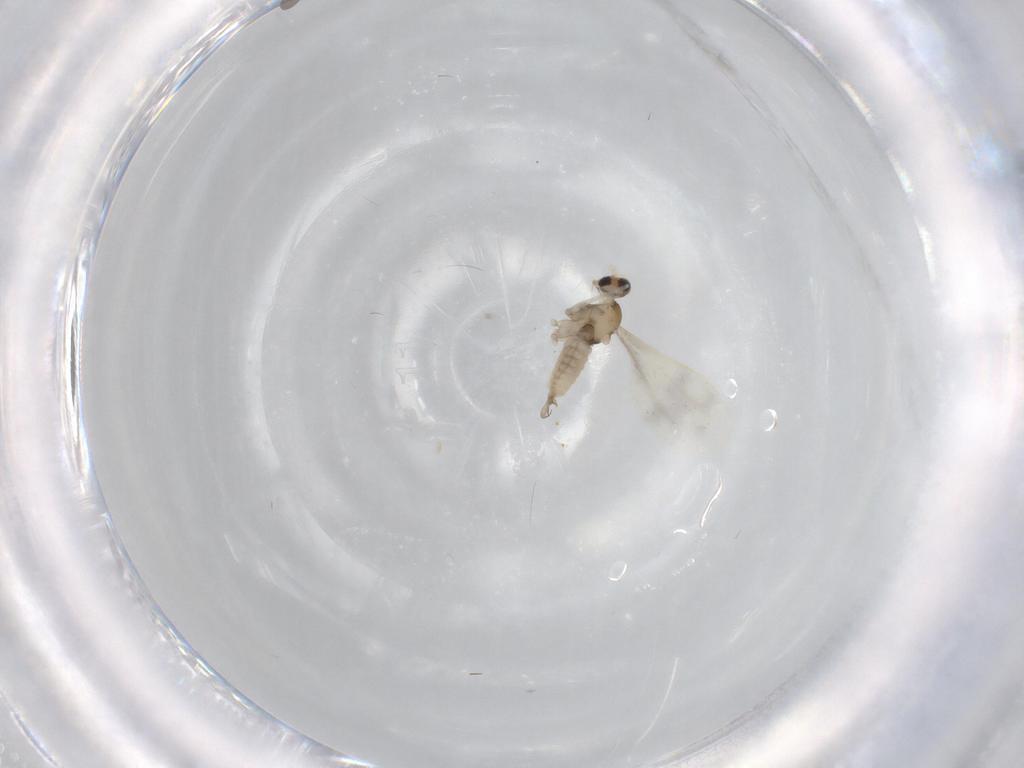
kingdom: Animalia
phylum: Arthropoda
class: Insecta
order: Diptera
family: Cecidomyiidae
